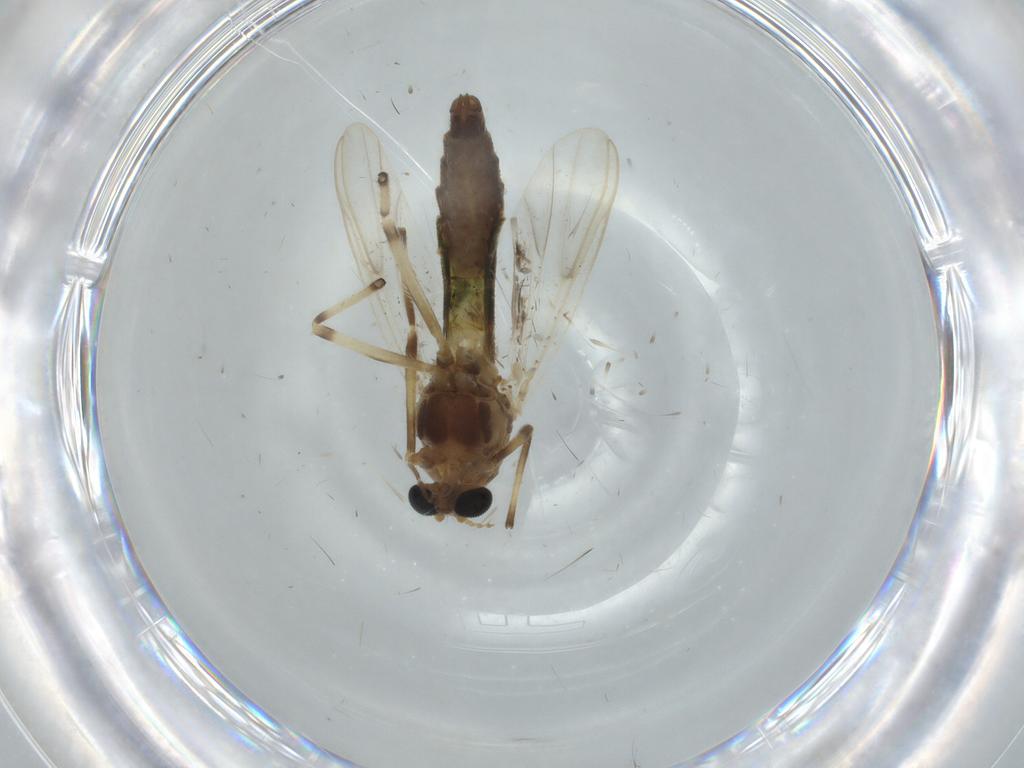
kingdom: Animalia
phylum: Arthropoda
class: Insecta
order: Diptera
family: Chironomidae
